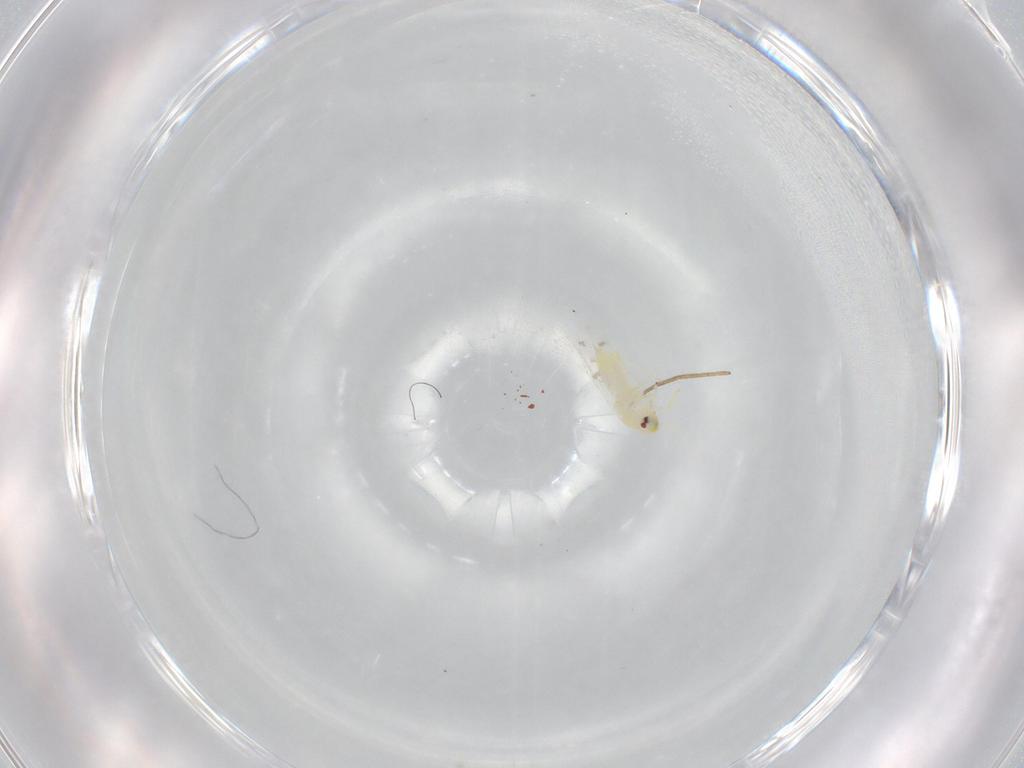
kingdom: Animalia
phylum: Arthropoda
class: Insecta
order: Hemiptera
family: Aleyrodidae
